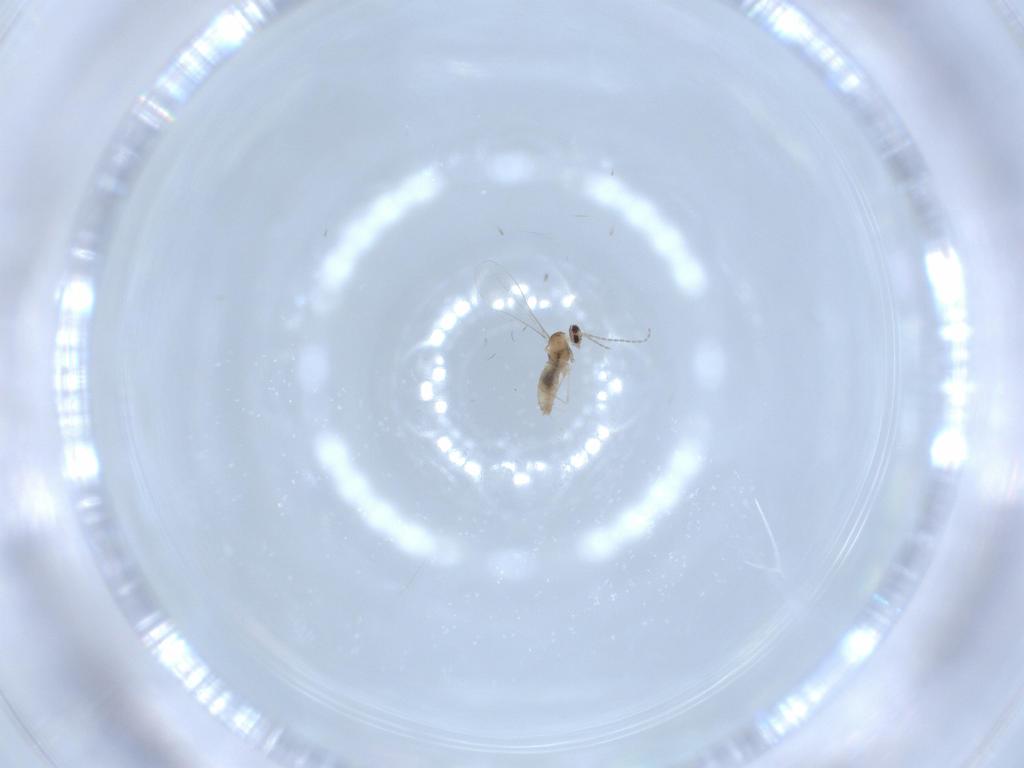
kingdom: Animalia
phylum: Arthropoda
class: Insecta
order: Diptera
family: Cecidomyiidae
